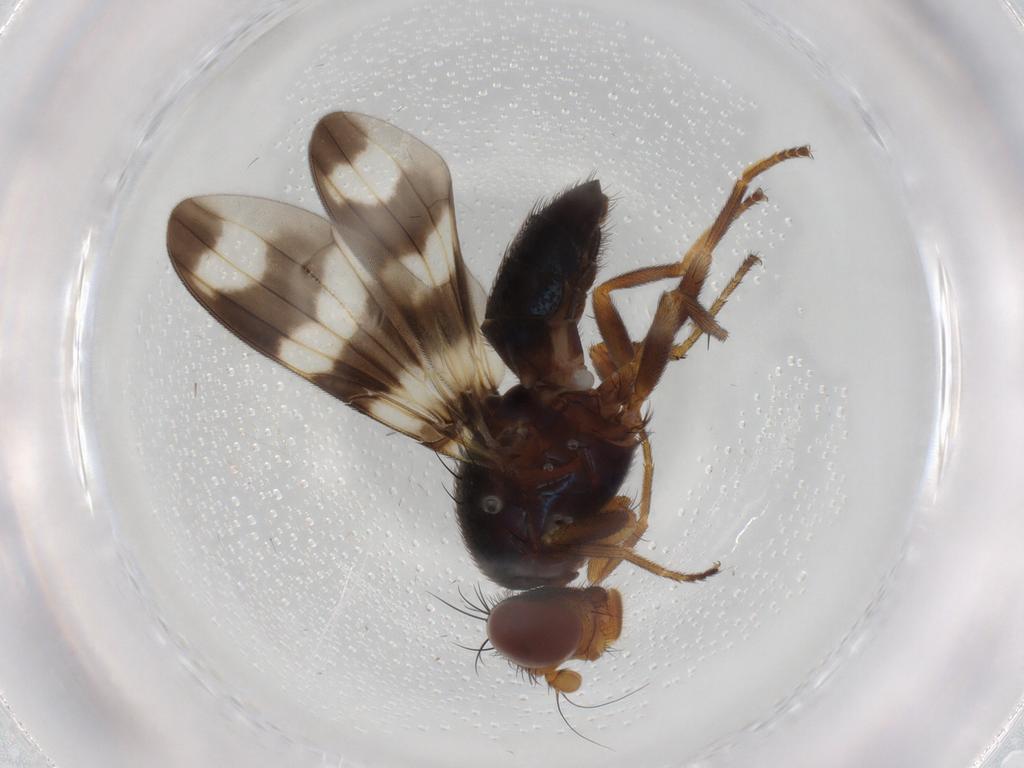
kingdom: Animalia
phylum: Arthropoda
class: Insecta
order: Diptera
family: Ulidiidae
